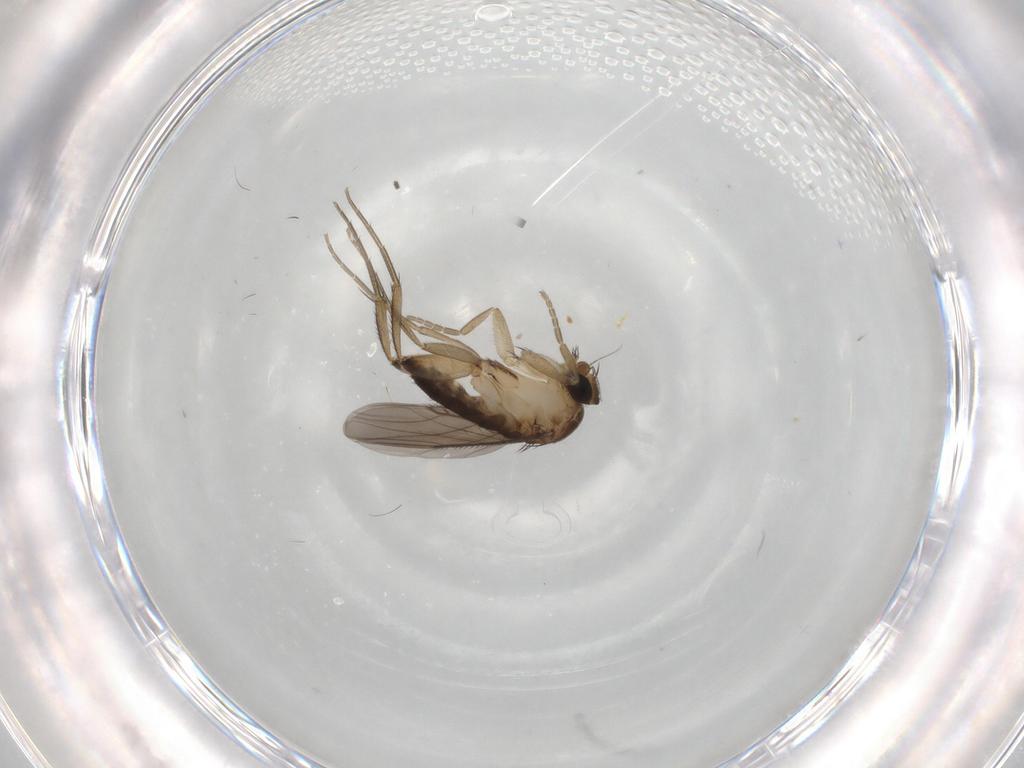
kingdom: Animalia
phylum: Arthropoda
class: Insecta
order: Diptera
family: Phoridae
